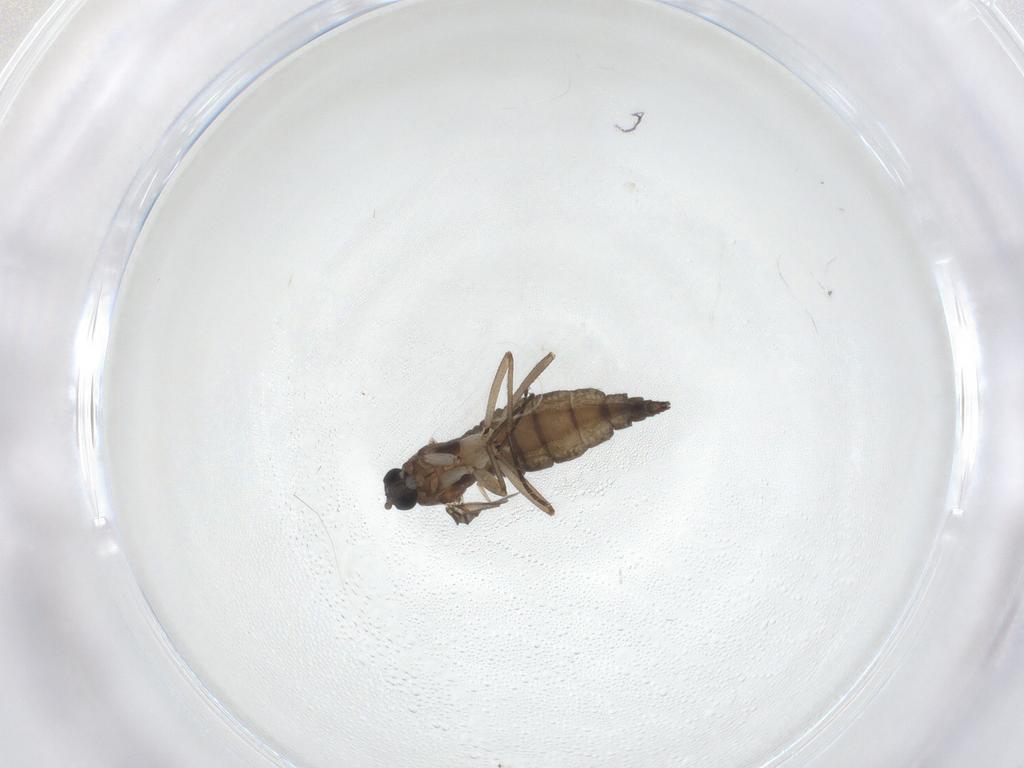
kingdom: Animalia
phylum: Arthropoda
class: Insecta
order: Diptera
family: Sciaridae
